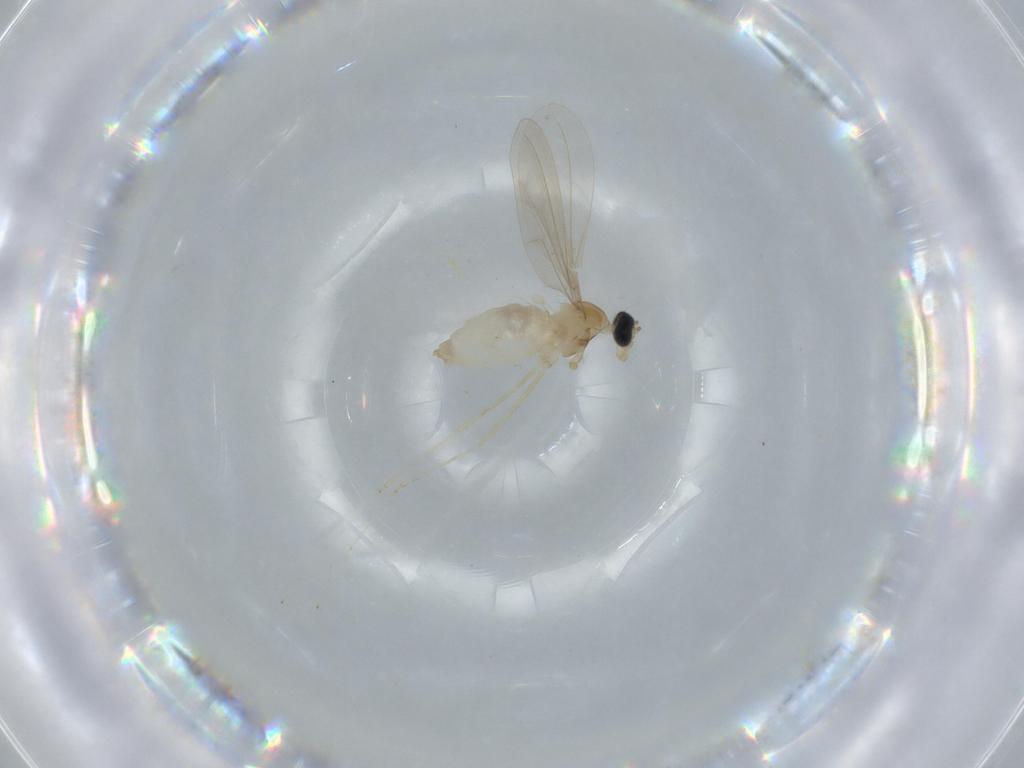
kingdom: Animalia
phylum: Arthropoda
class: Insecta
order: Diptera
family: Cecidomyiidae
